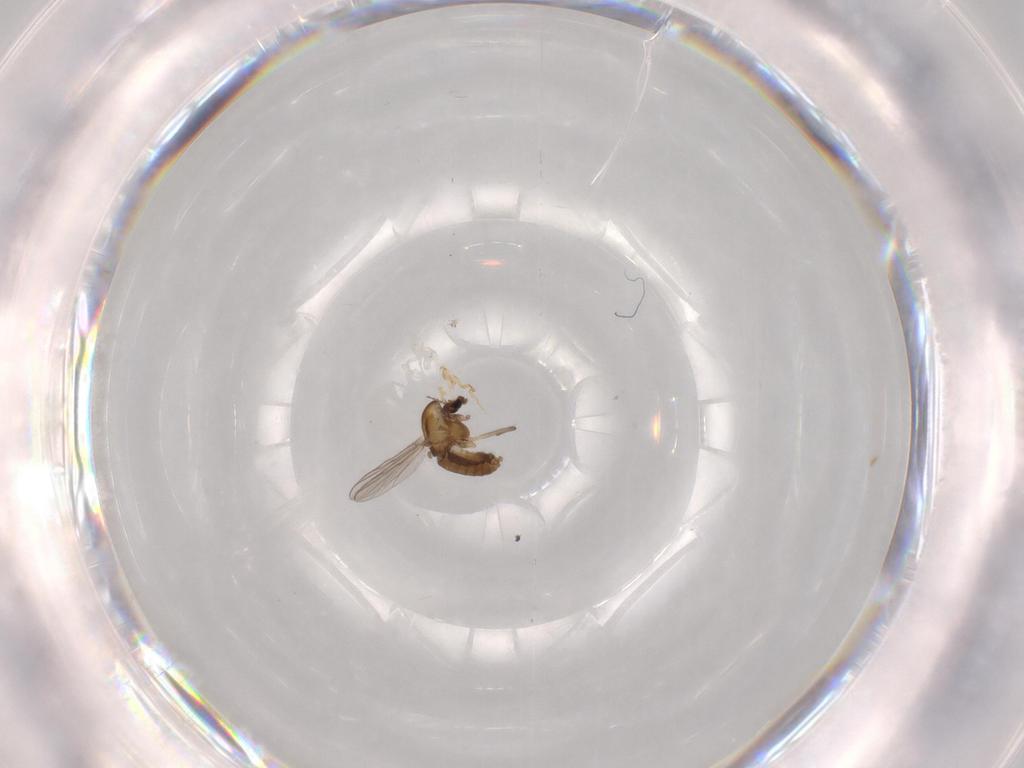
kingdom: Animalia
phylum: Arthropoda
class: Insecta
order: Diptera
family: Chironomidae
